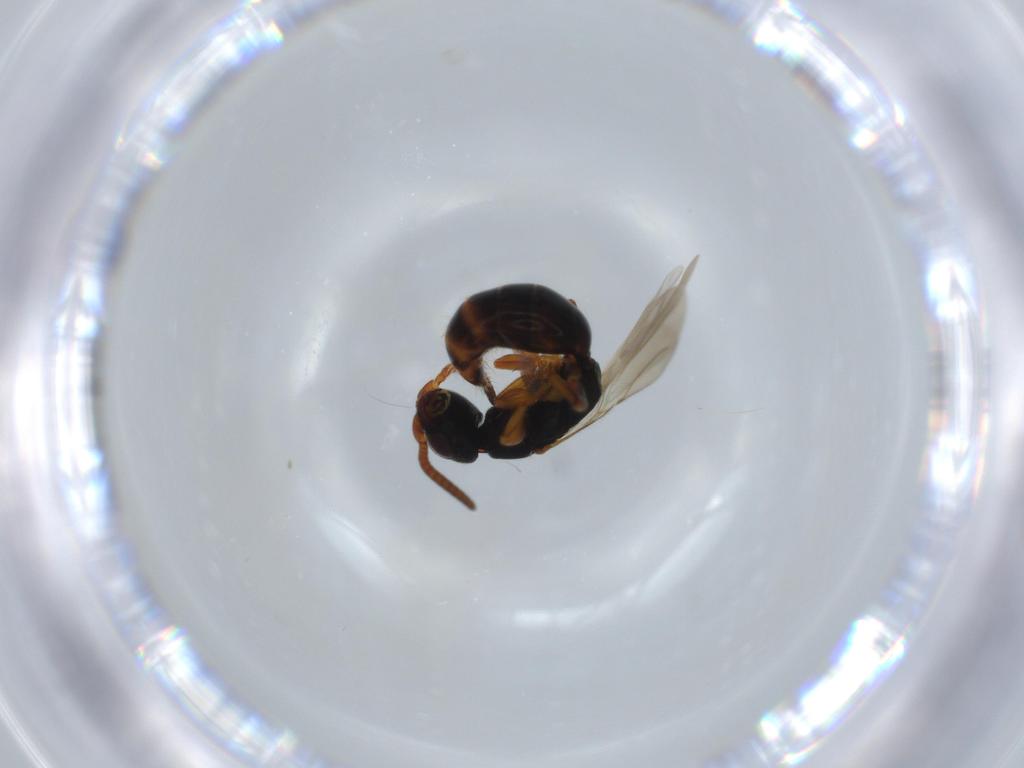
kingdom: Animalia
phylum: Arthropoda
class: Insecta
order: Hymenoptera
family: Bethylidae
